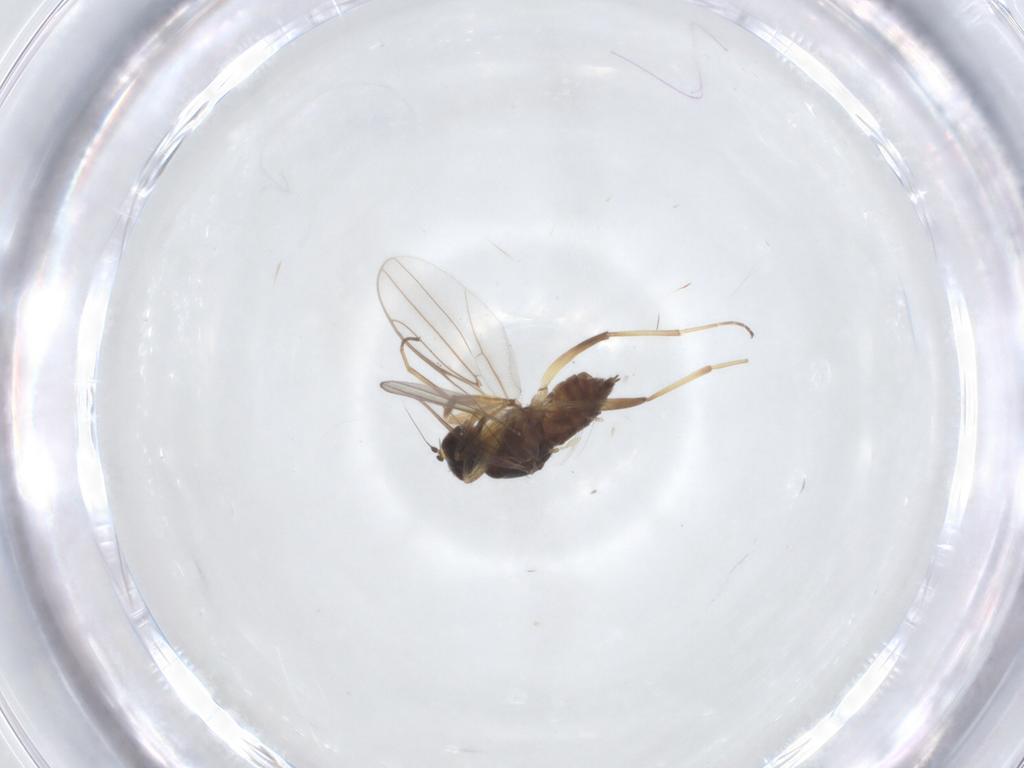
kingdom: Animalia
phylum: Arthropoda
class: Insecta
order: Diptera
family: Hybotidae
